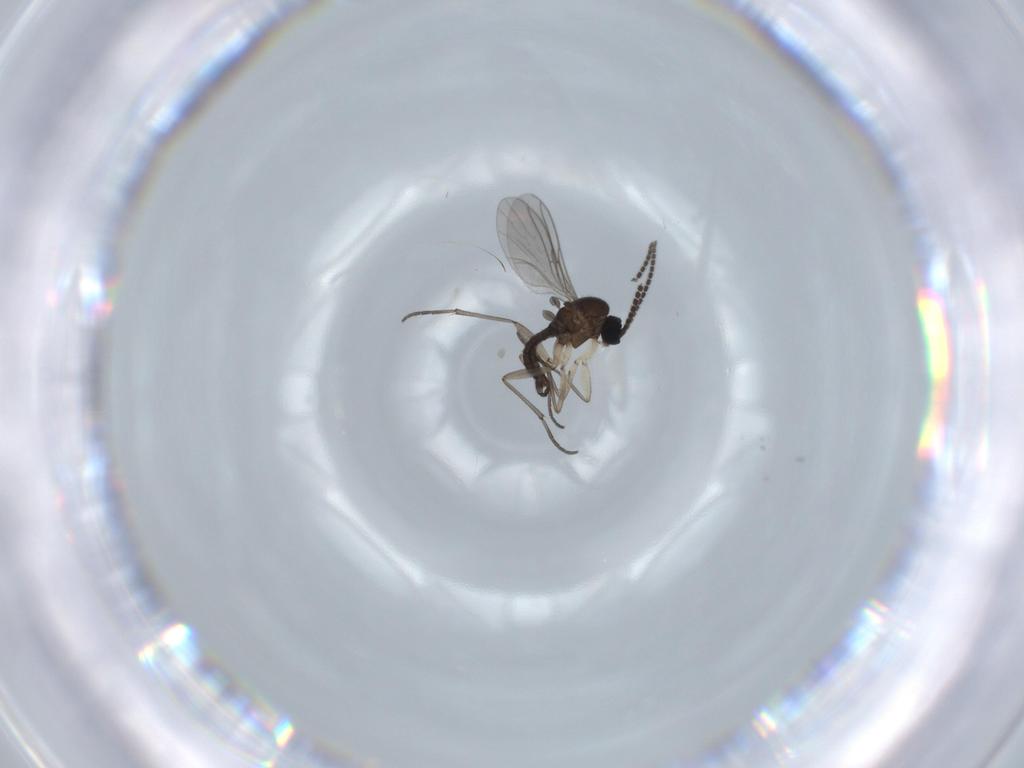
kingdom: Animalia
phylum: Arthropoda
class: Insecta
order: Diptera
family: Sciaridae
